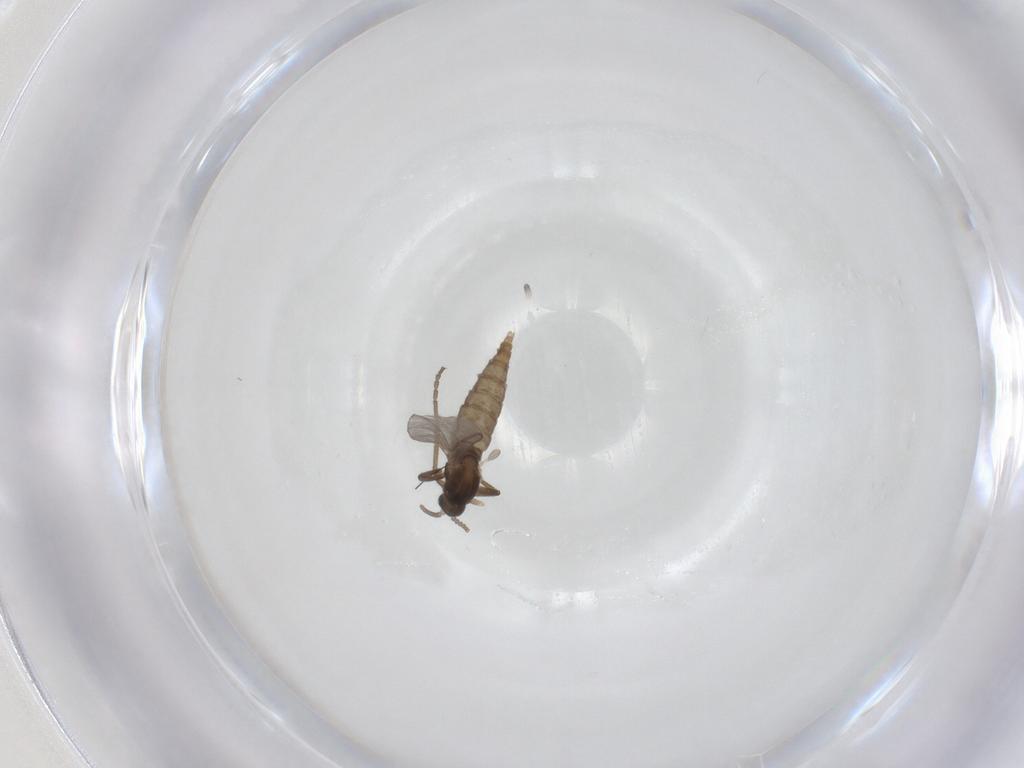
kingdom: Animalia
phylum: Arthropoda
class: Insecta
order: Diptera
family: Cecidomyiidae
